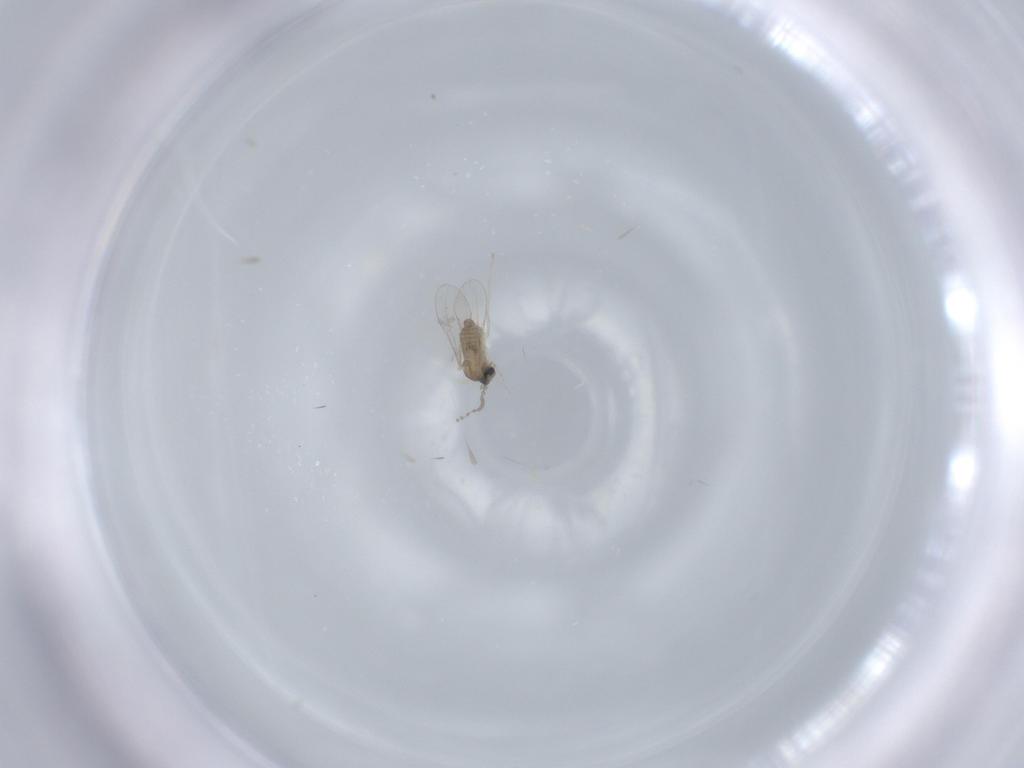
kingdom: Animalia
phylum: Arthropoda
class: Insecta
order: Diptera
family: Cecidomyiidae
